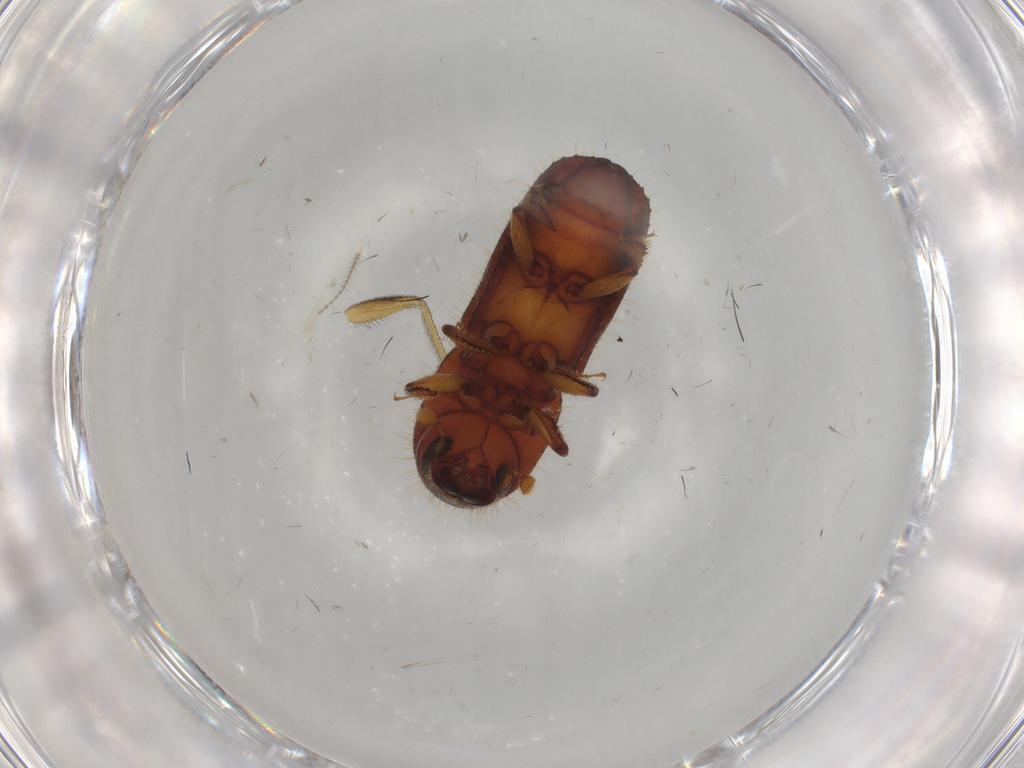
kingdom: Animalia
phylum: Arthropoda
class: Insecta
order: Coleoptera
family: Curculionidae
